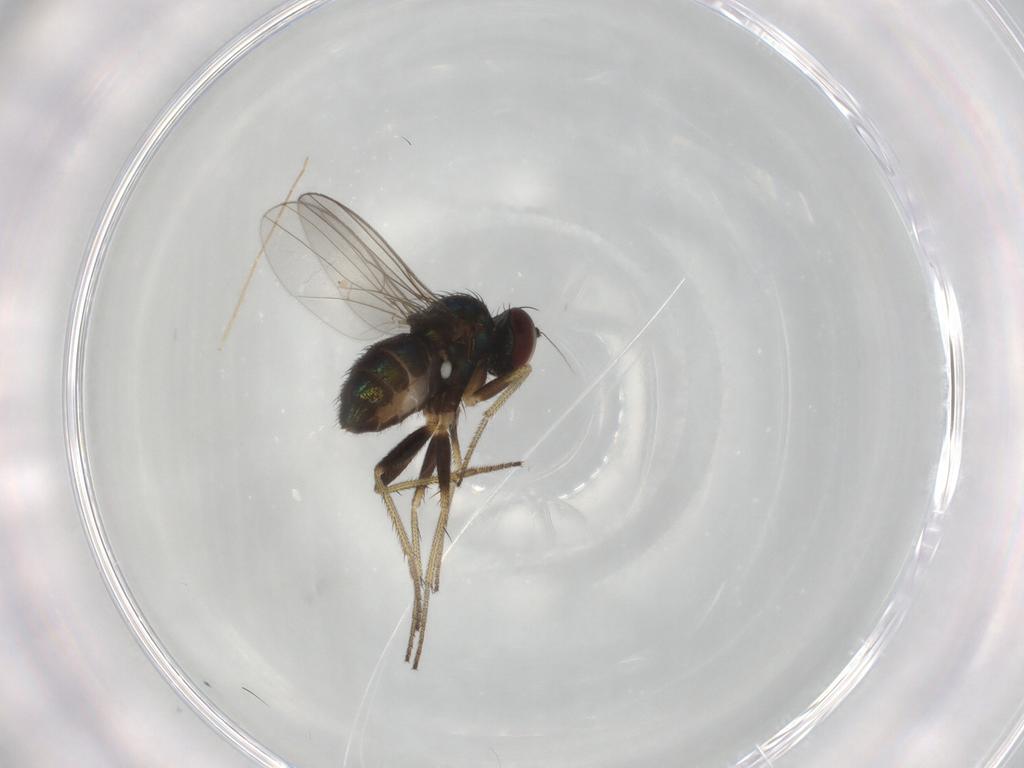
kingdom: Animalia
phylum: Arthropoda
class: Insecta
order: Diptera
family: Dolichopodidae
